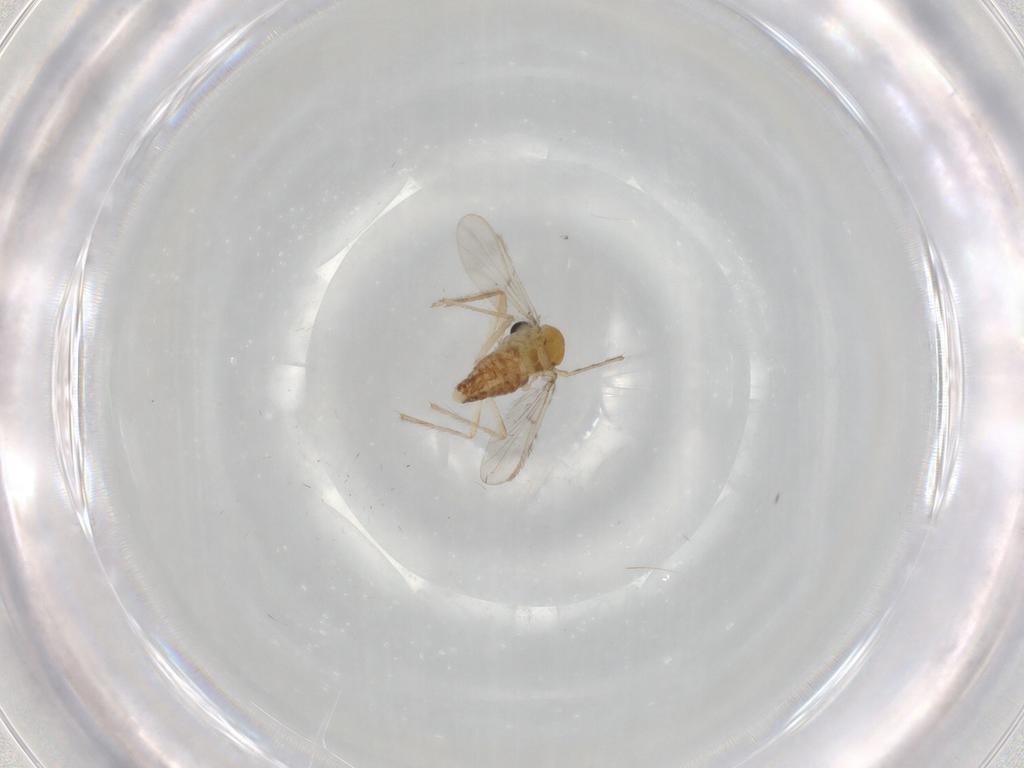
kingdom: Animalia
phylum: Arthropoda
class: Insecta
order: Diptera
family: Chironomidae
